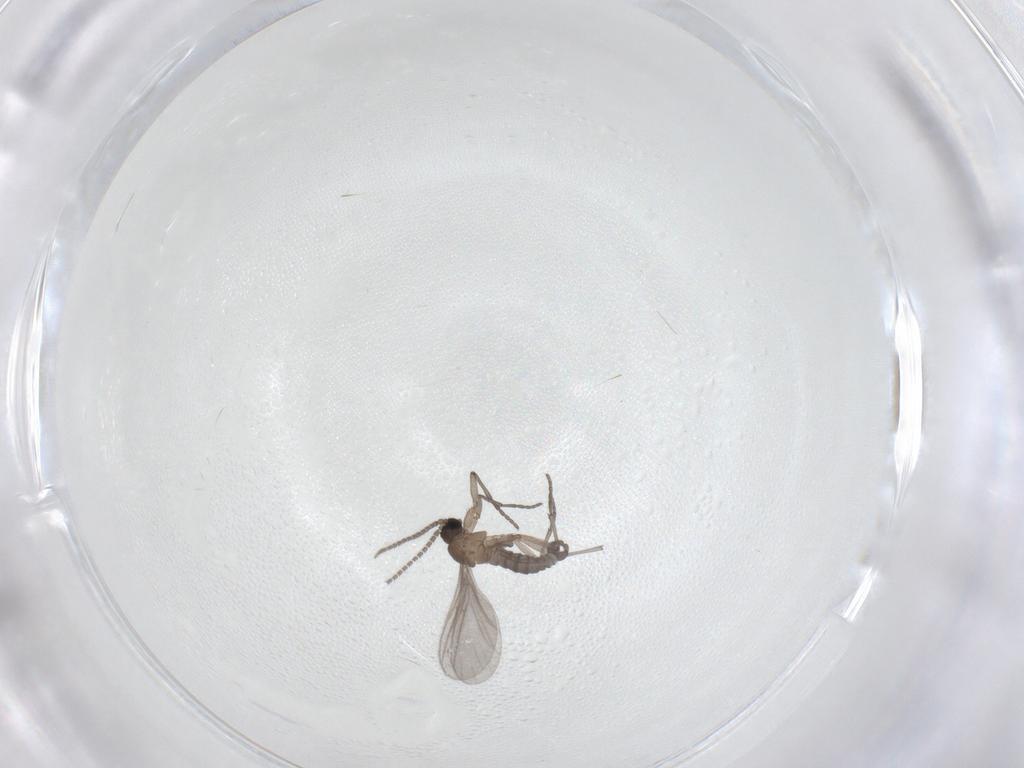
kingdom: Animalia
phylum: Arthropoda
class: Insecta
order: Diptera
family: Sciaridae
